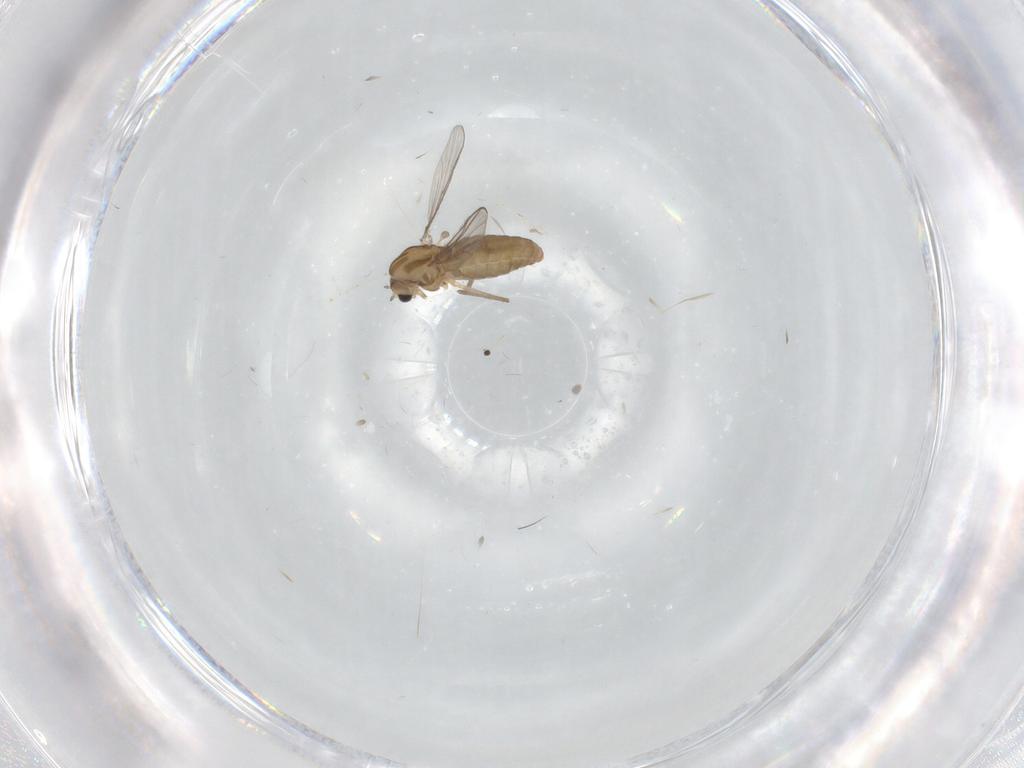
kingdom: Animalia
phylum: Arthropoda
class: Insecta
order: Diptera
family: Chironomidae
